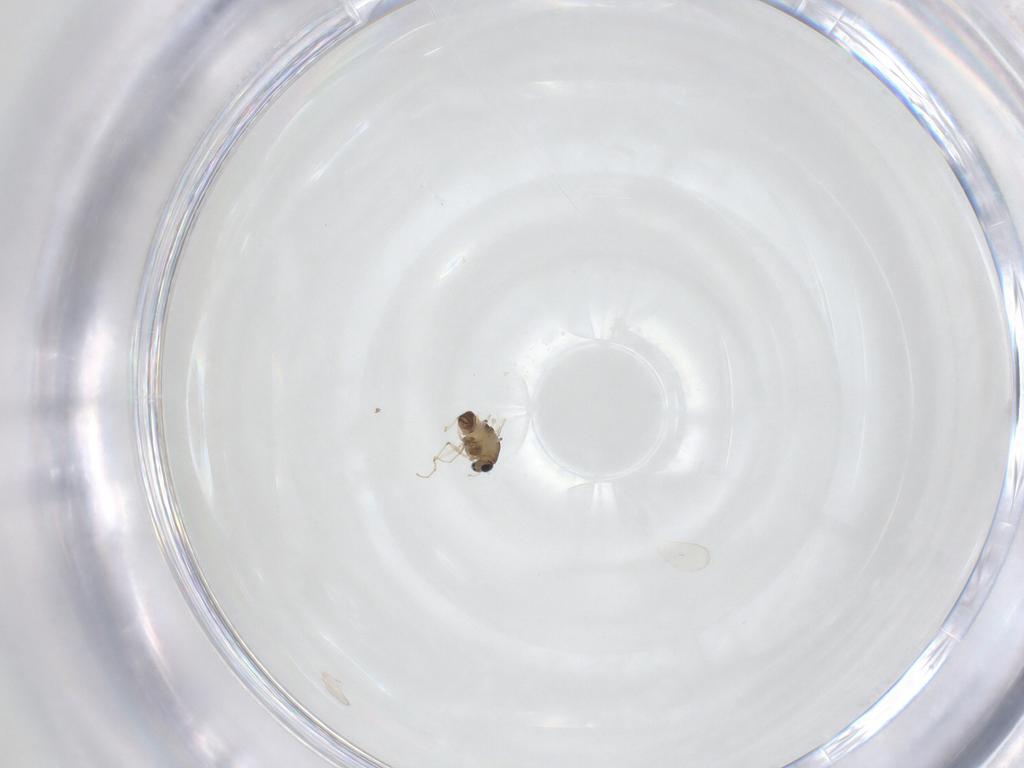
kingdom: Animalia
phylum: Arthropoda
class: Insecta
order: Diptera
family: Chironomidae
